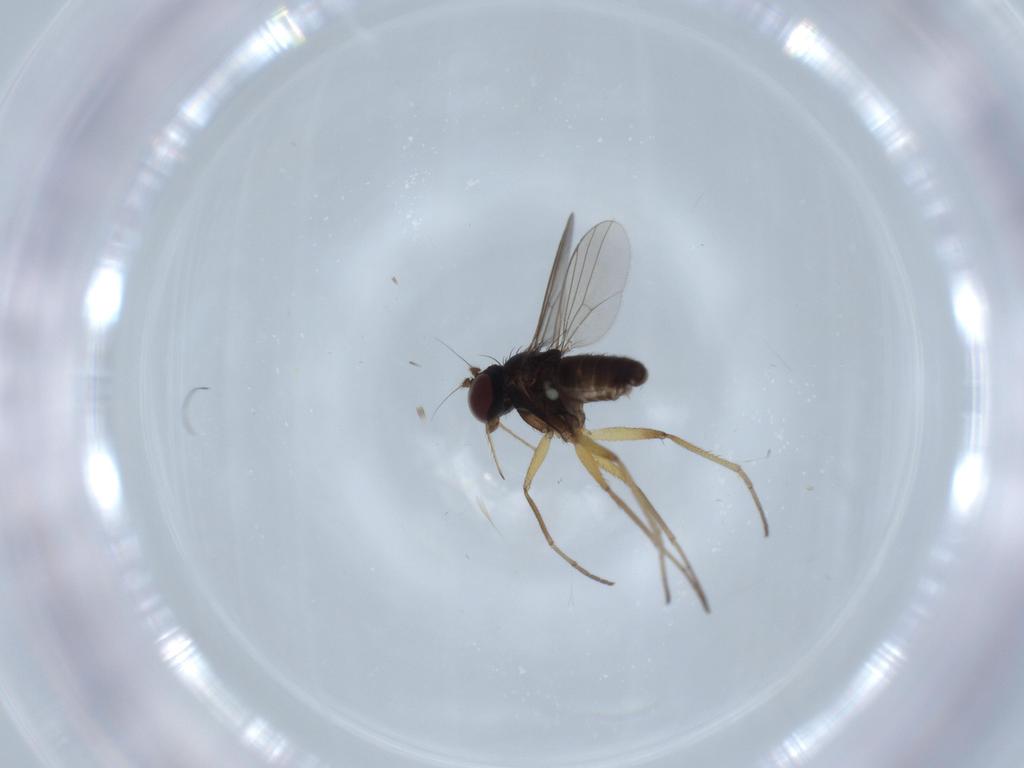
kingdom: Animalia
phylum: Arthropoda
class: Insecta
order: Diptera
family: Dolichopodidae
